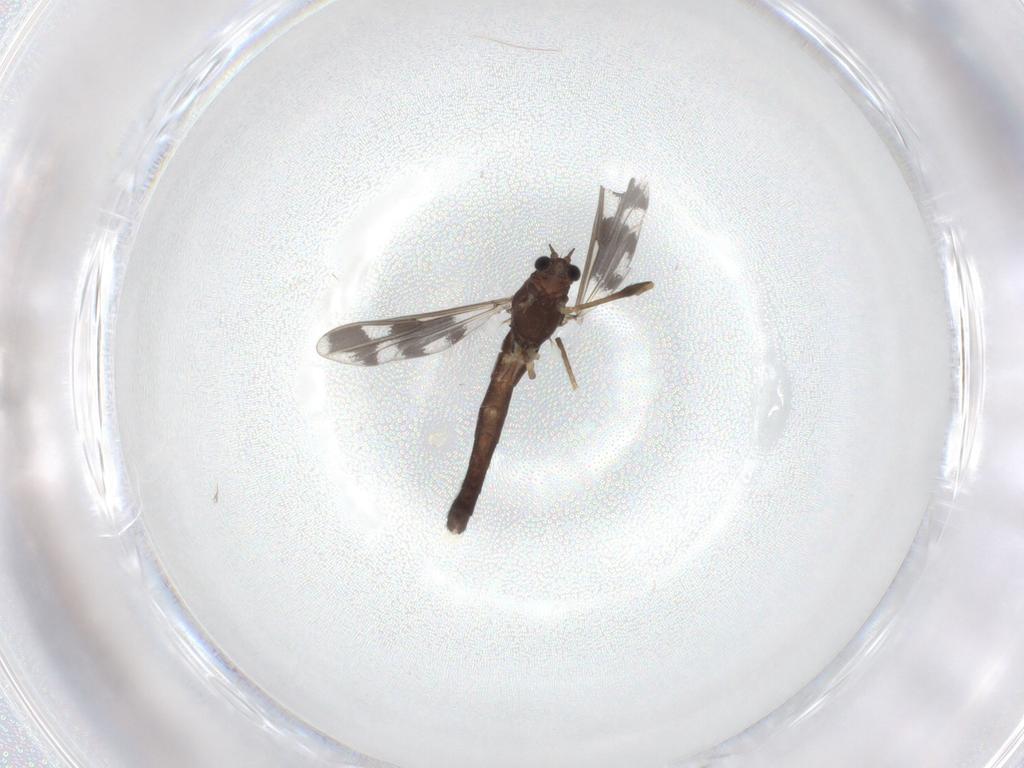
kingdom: Animalia
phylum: Arthropoda
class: Insecta
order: Diptera
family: Chironomidae
